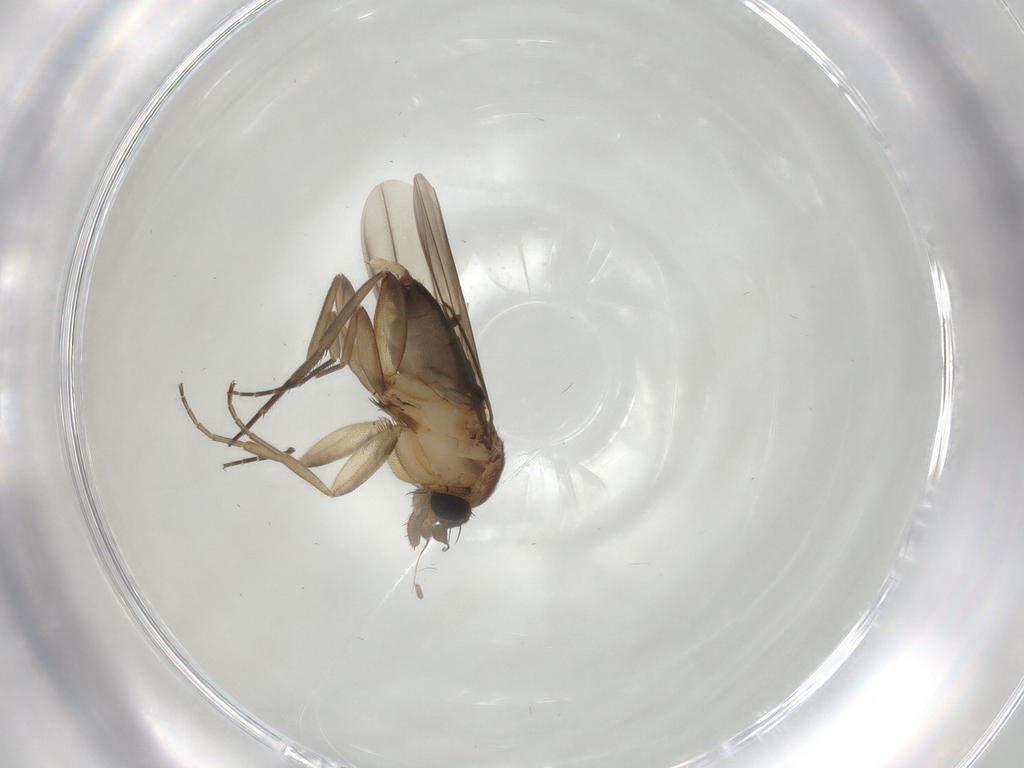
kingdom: Animalia
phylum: Arthropoda
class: Insecta
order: Diptera
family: Phoridae
